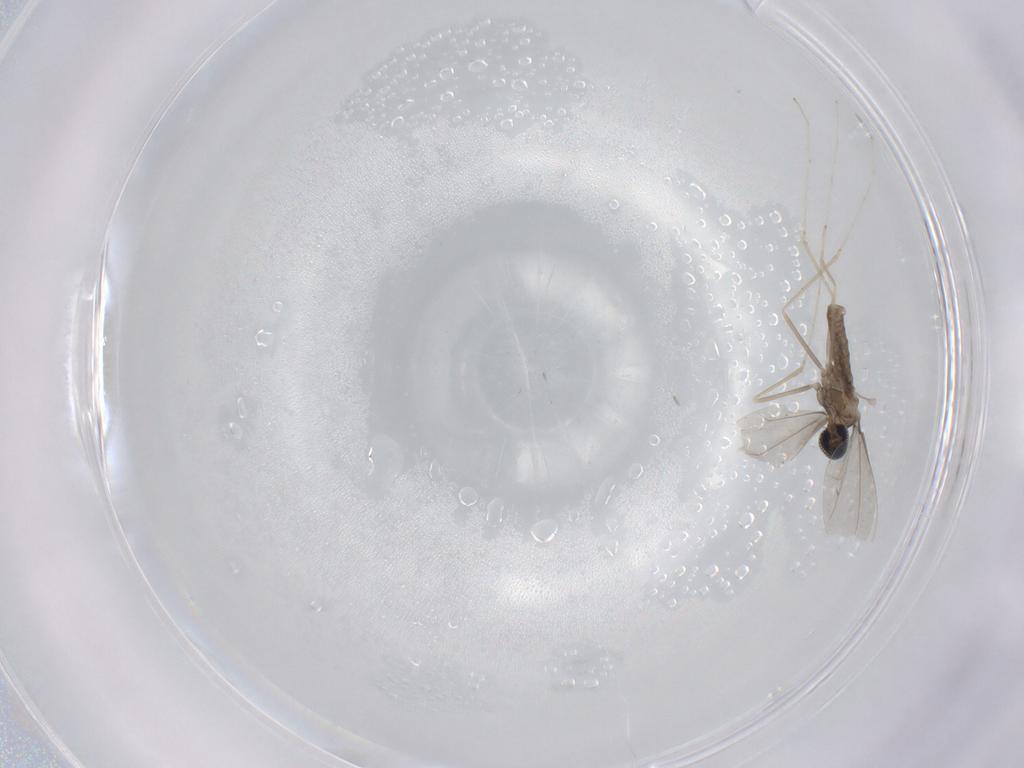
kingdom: Animalia
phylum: Arthropoda
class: Insecta
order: Diptera
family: Cecidomyiidae
